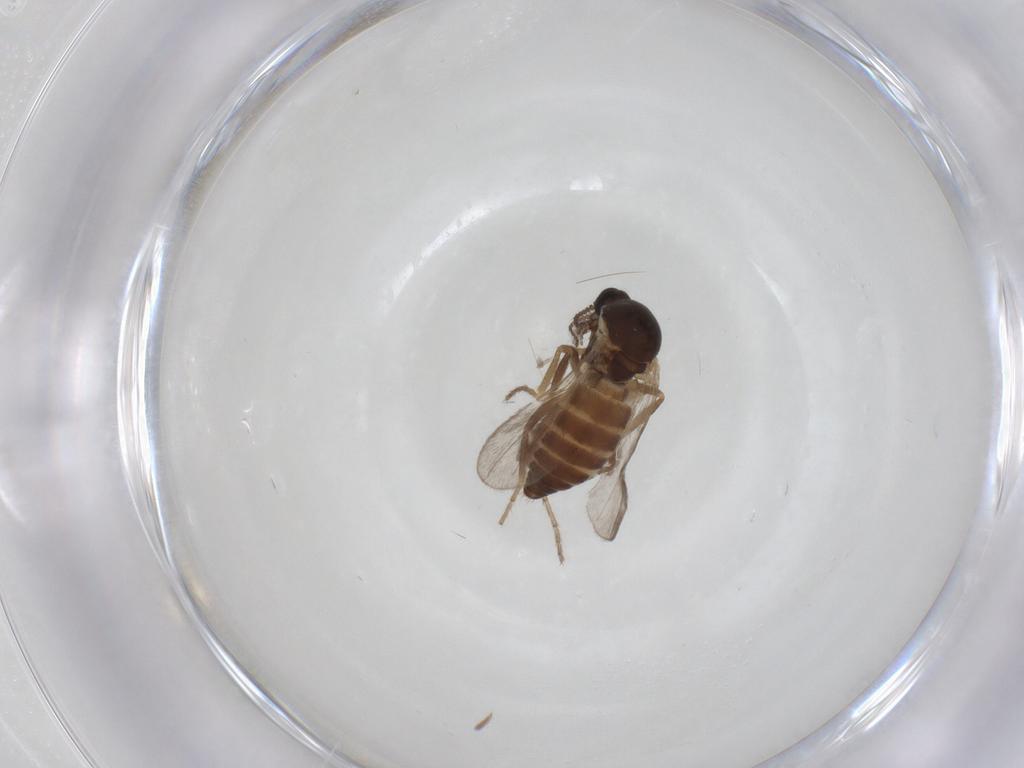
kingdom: Animalia
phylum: Arthropoda
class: Insecta
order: Diptera
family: Ceratopogonidae
